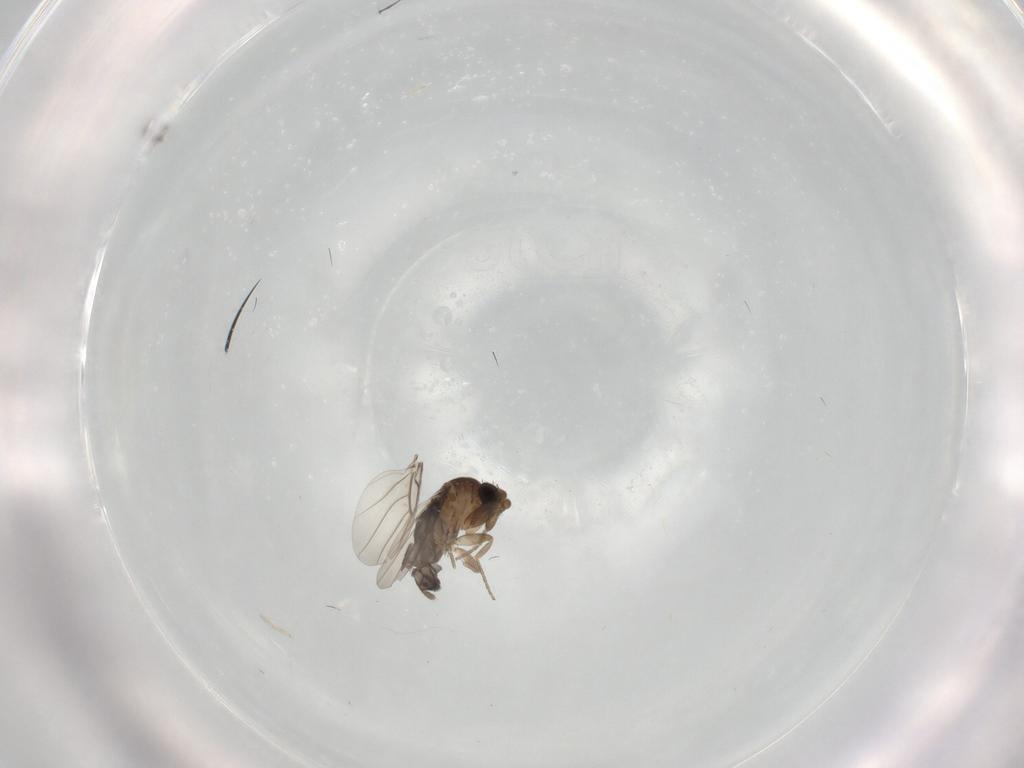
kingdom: Animalia
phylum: Arthropoda
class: Insecta
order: Diptera
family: Phoridae
